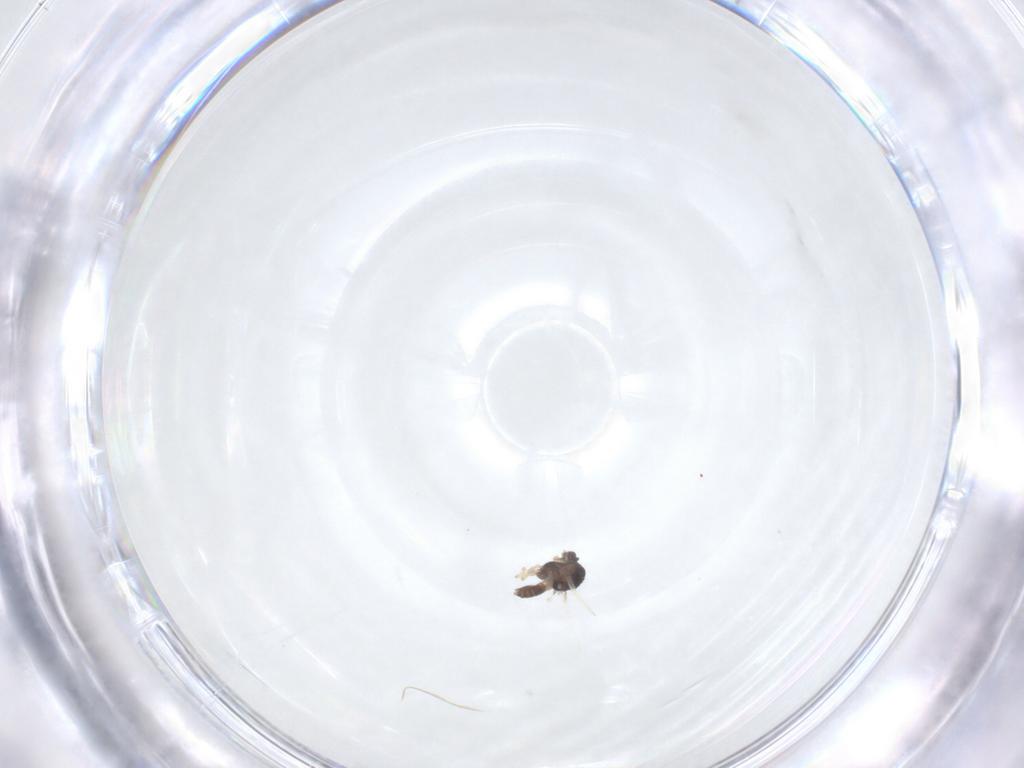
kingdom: Animalia
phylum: Arthropoda
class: Insecta
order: Diptera
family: Chironomidae
